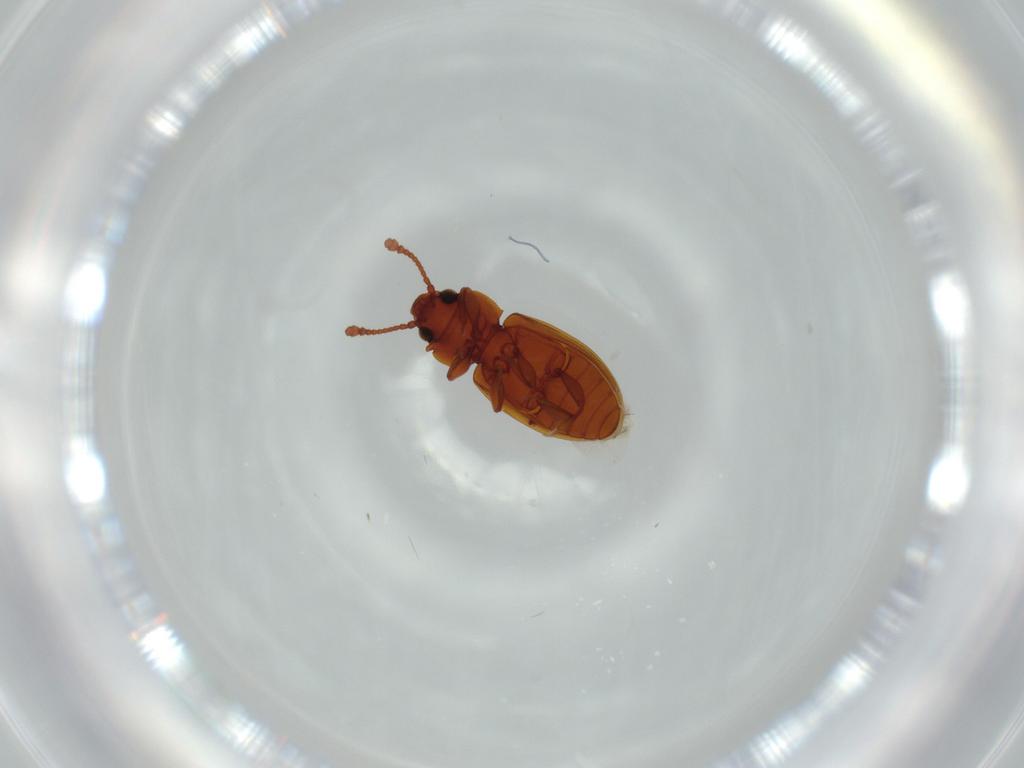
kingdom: Animalia
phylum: Arthropoda
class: Insecta
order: Coleoptera
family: Silvanidae
